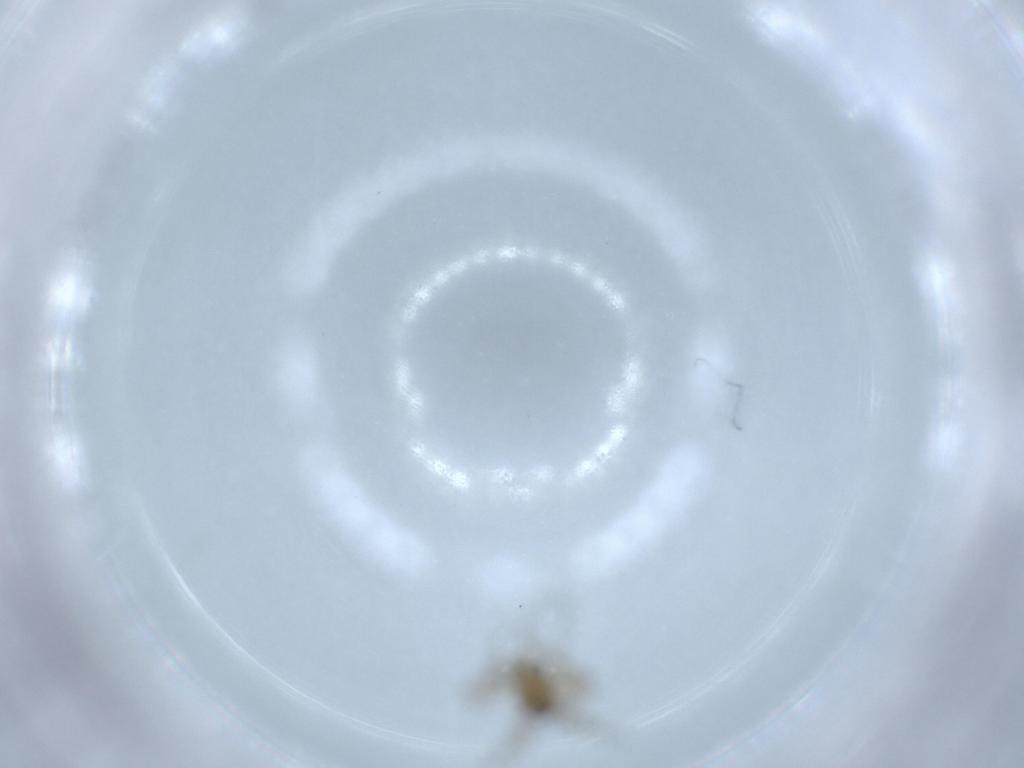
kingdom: Animalia
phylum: Arthropoda
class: Insecta
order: Diptera
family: Chironomidae
